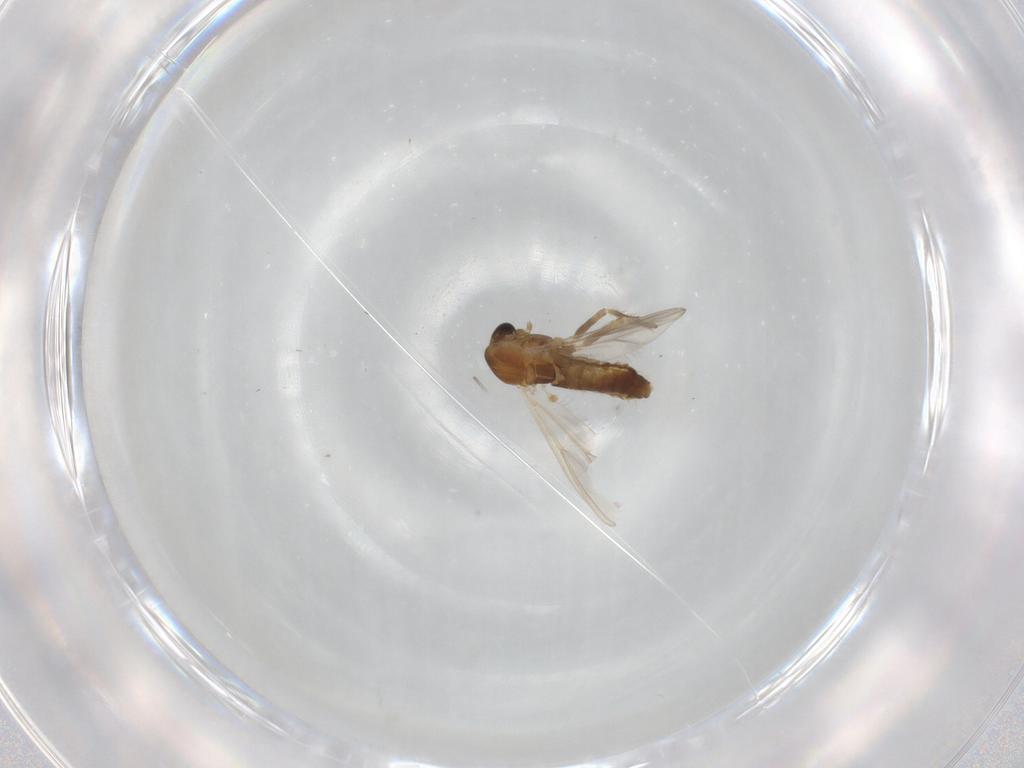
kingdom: Animalia
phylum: Arthropoda
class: Insecta
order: Diptera
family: Chironomidae
